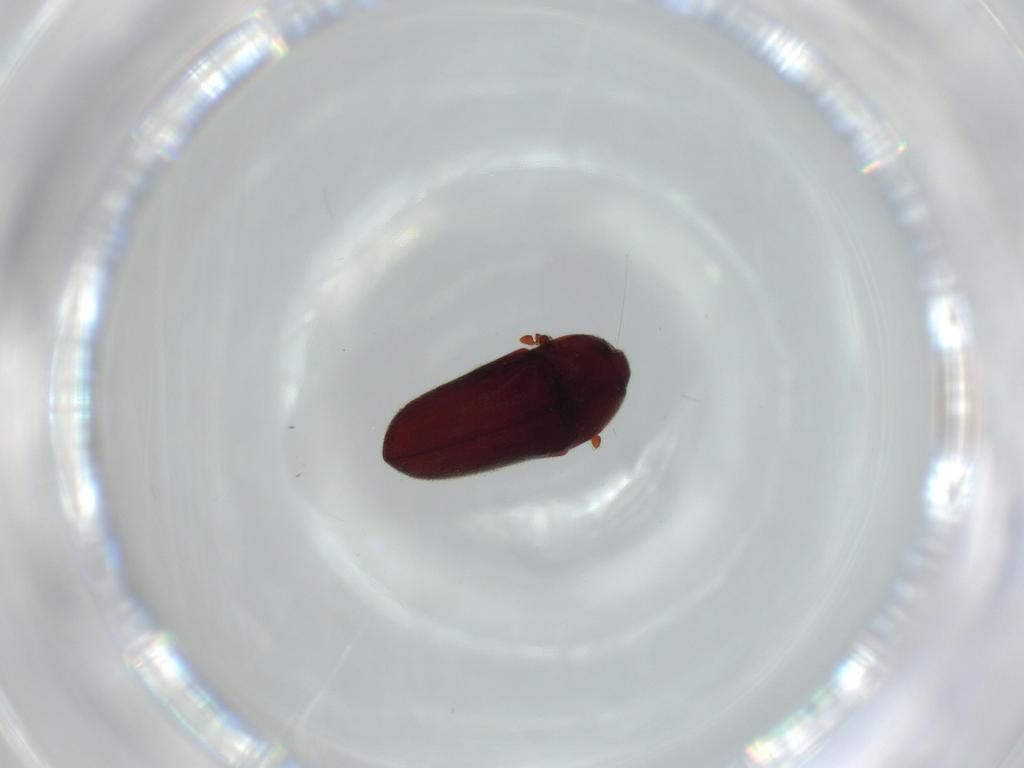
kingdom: Animalia
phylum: Arthropoda
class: Insecta
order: Coleoptera
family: Throscidae
